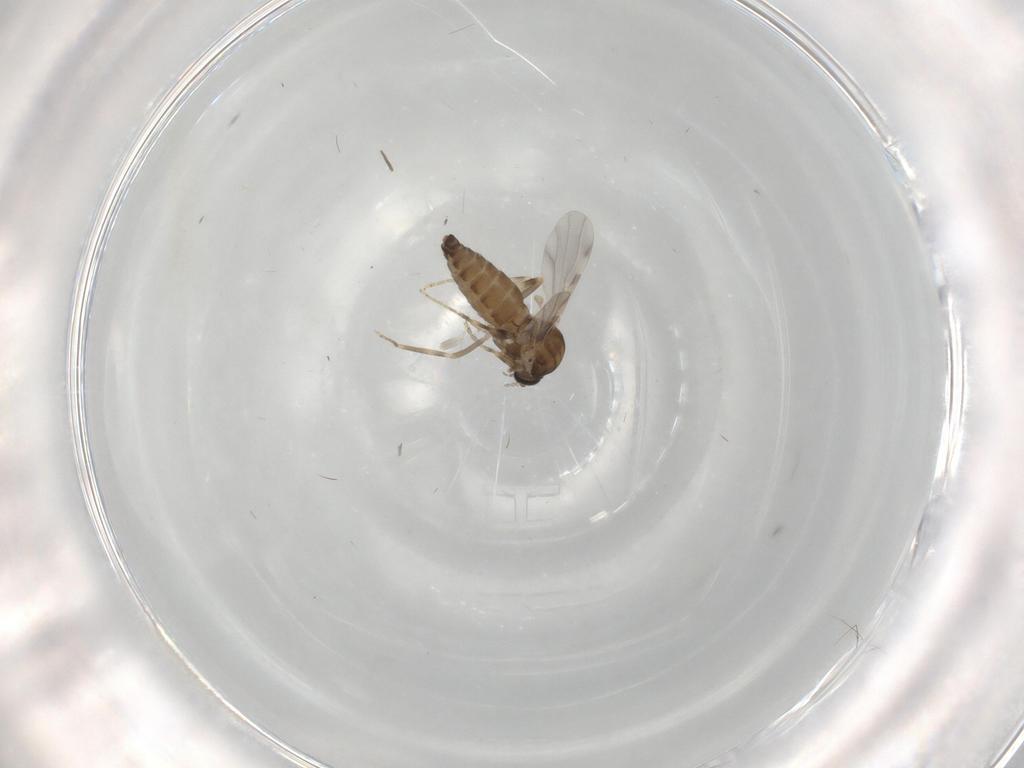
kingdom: Animalia
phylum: Arthropoda
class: Insecta
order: Diptera
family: Ceratopogonidae
